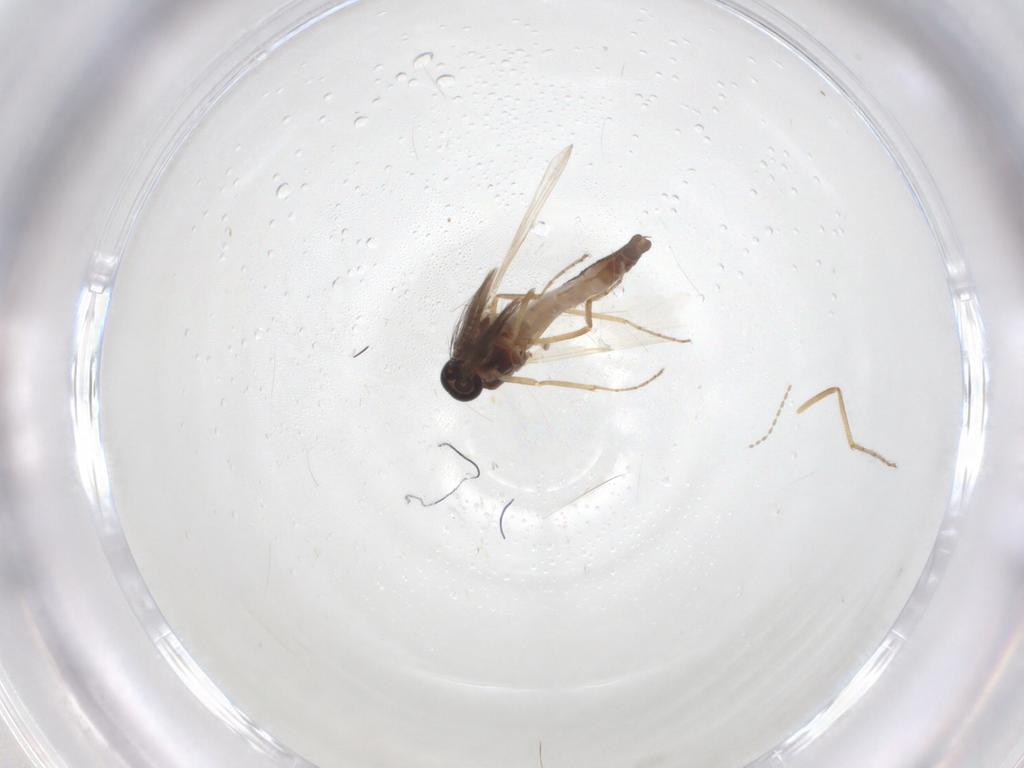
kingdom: Animalia
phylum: Arthropoda
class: Insecta
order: Diptera
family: Ceratopogonidae
